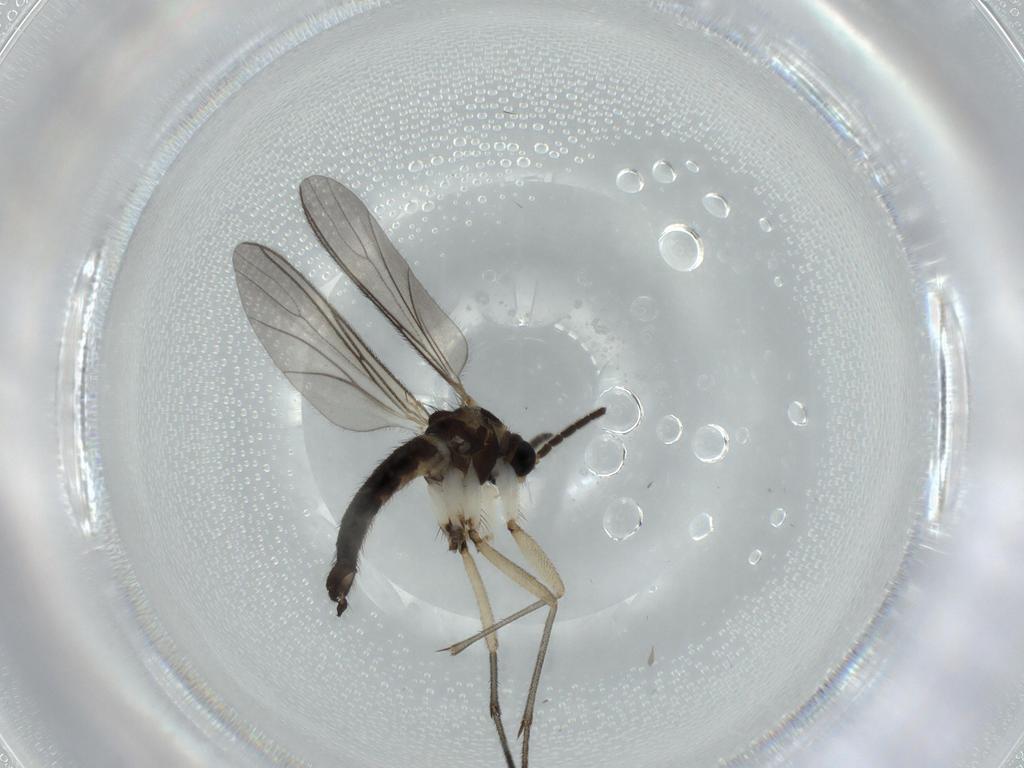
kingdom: Animalia
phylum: Arthropoda
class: Insecta
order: Diptera
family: Sciaridae
